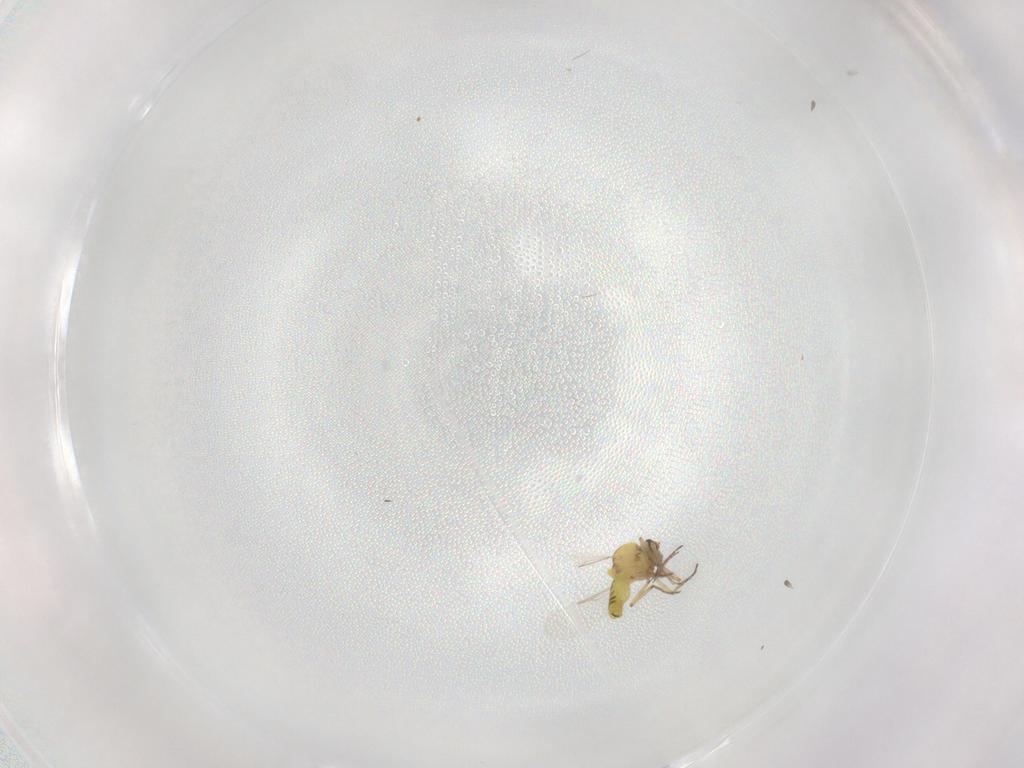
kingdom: Animalia
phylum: Arthropoda
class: Insecta
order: Diptera
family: Ceratopogonidae
